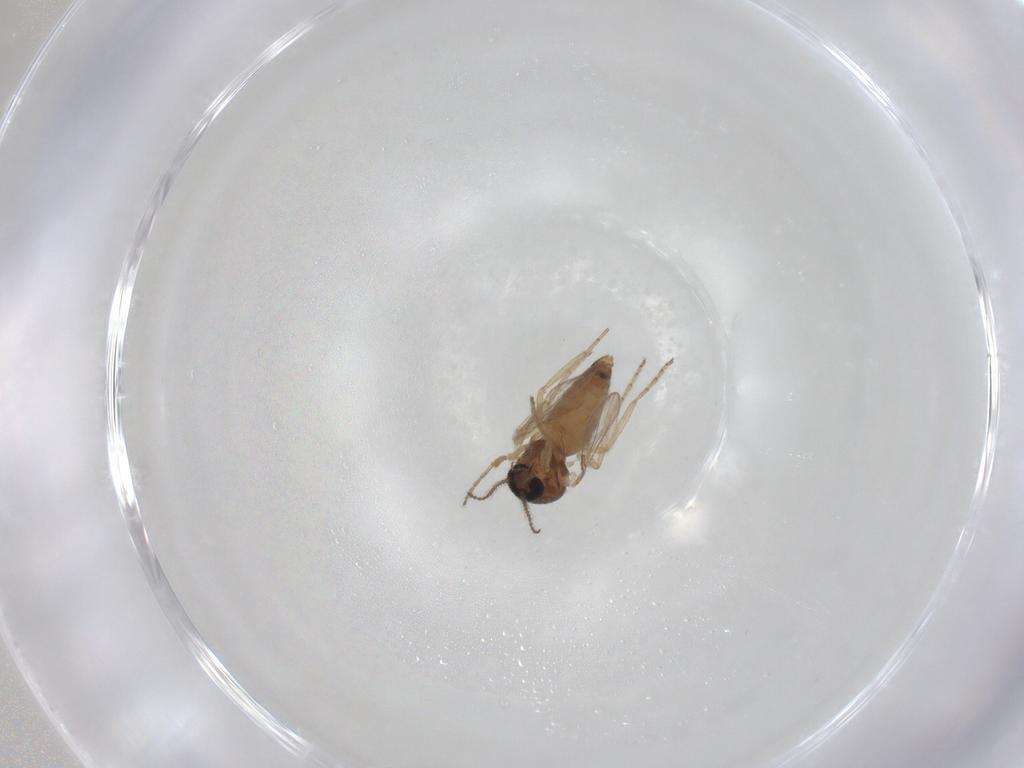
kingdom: Animalia
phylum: Arthropoda
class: Insecta
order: Diptera
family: Ceratopogonidae
